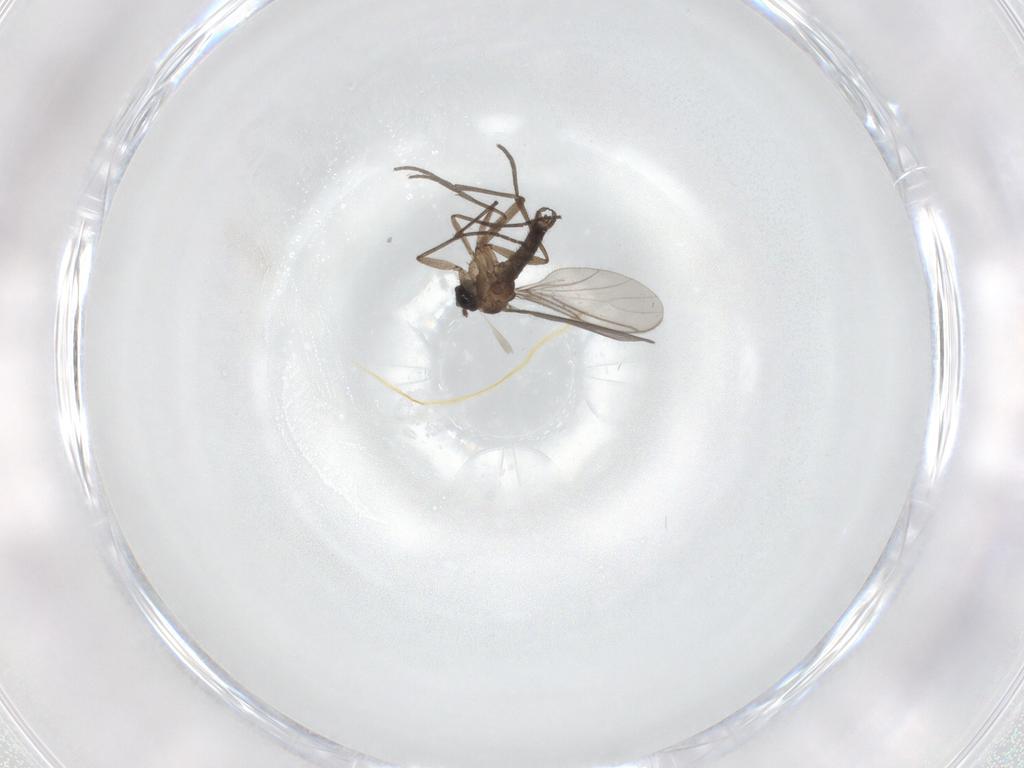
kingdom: Animalia
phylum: Arthropoda
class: Insecta
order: Diptera
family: Sciaridae
